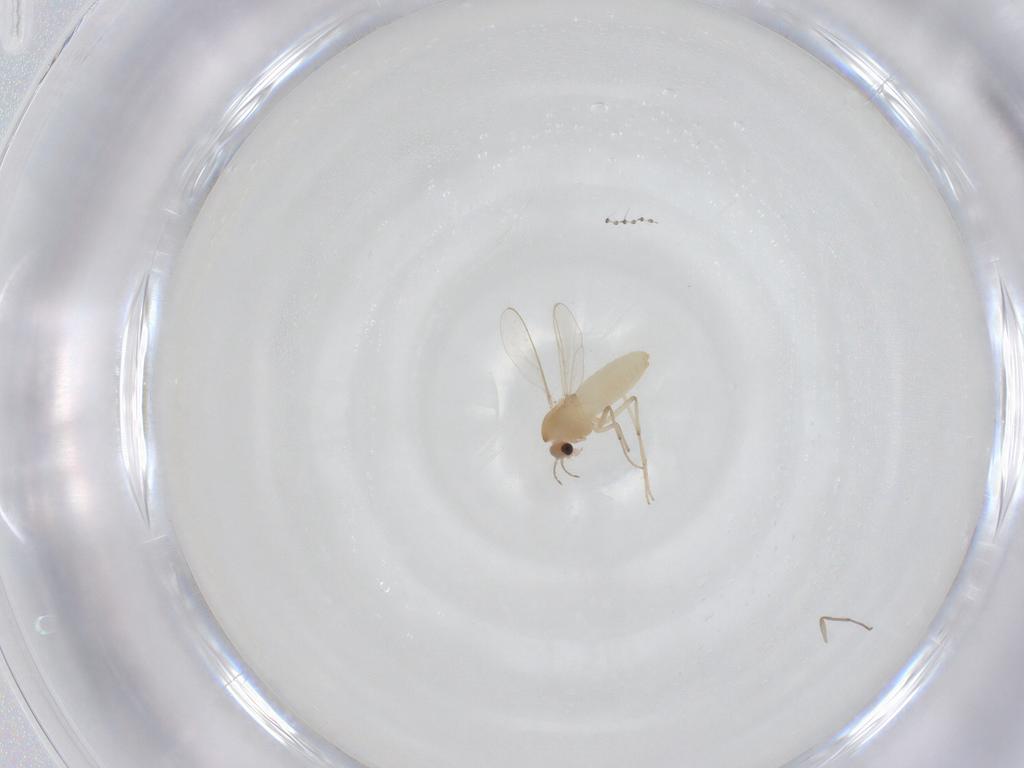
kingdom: Animalia
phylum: Arthropoda
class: Insecta
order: Diptera
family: Chironomidae
